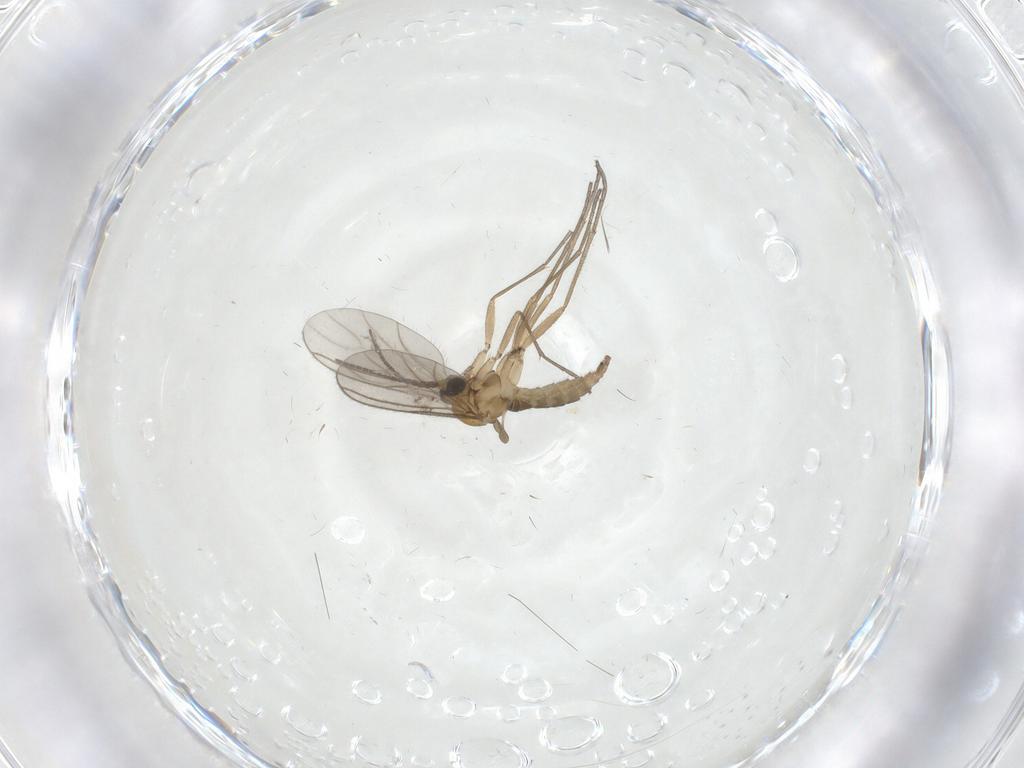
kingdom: Animalia
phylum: Arthropoda
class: Insecta
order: Diptera
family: Sciaridae
